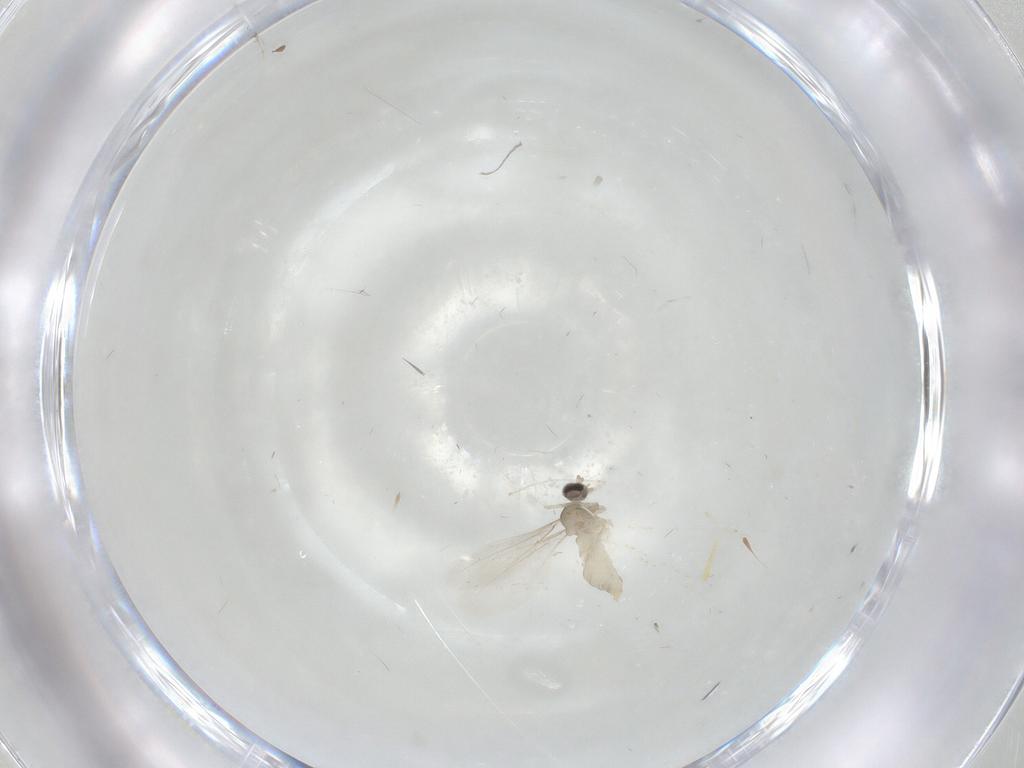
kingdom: Animalia
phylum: Arthropoda
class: Insecta
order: Diptera
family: Cecidomyiidae
